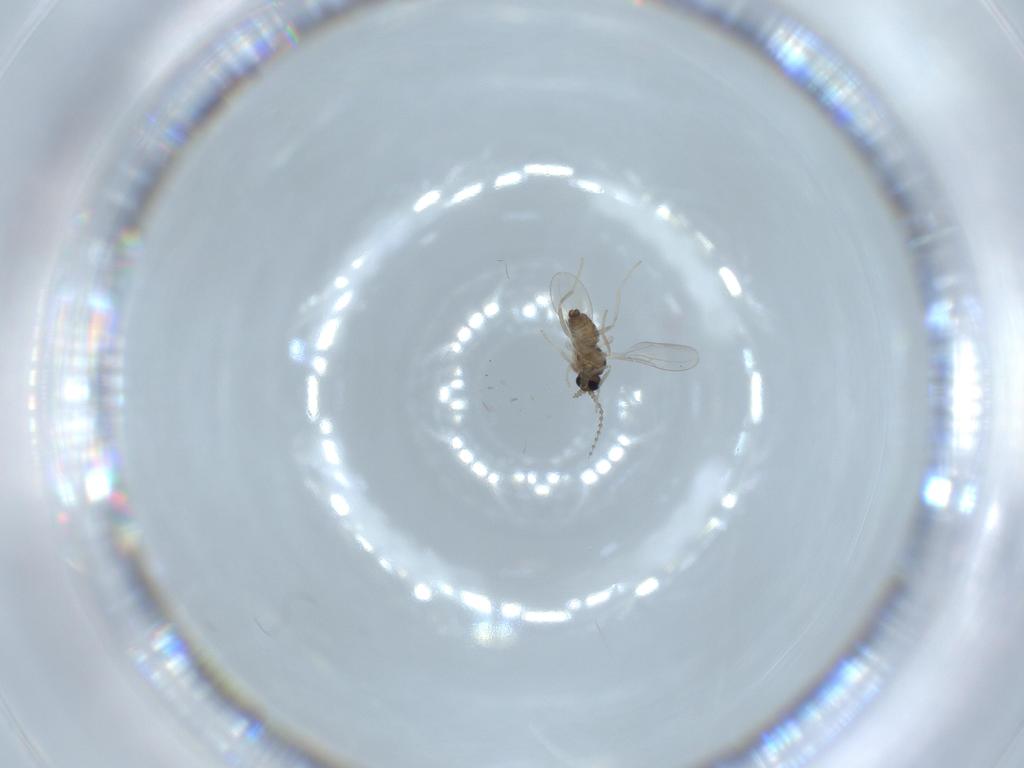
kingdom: Animalia
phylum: Arthropoda
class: Insecta
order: Diptera
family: Cecidomyiidae
